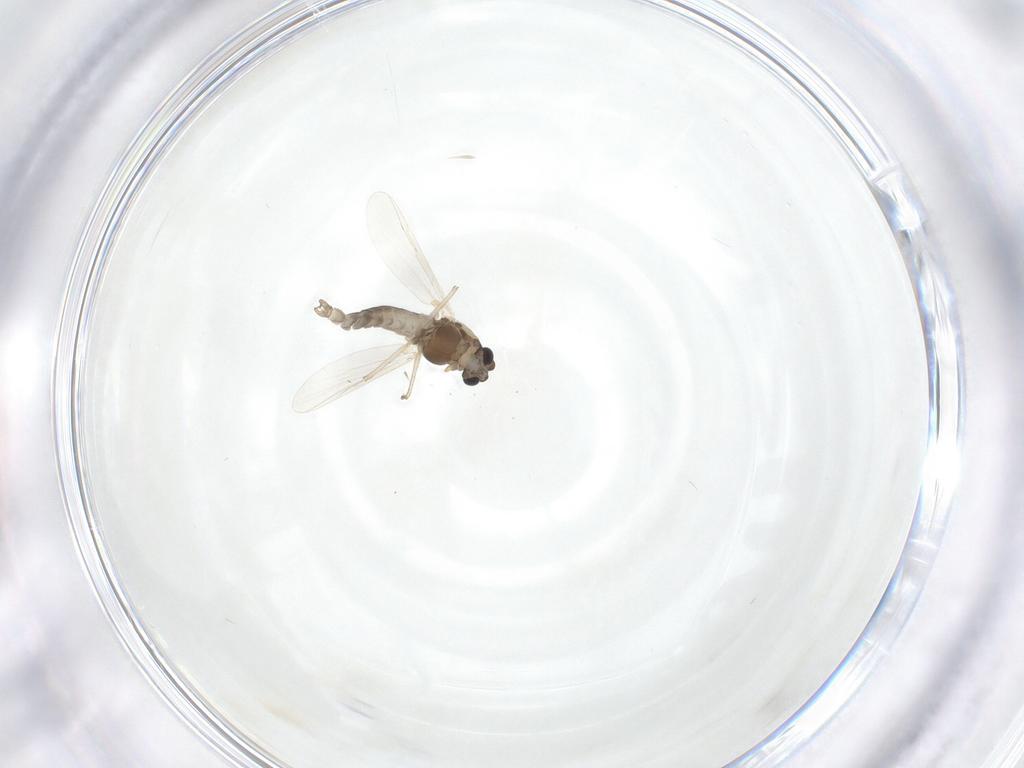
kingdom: Animalia
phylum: Arthropoda
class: Insecta
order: Diptera
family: Chironomidae
